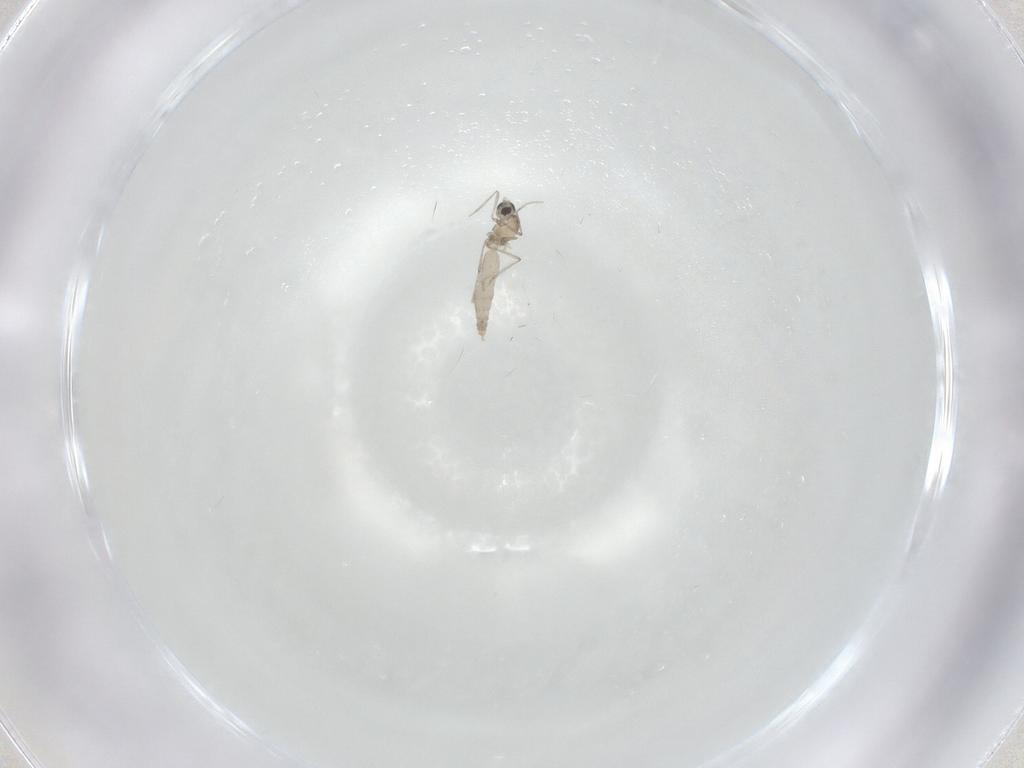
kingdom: Animalia
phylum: Arthropoda
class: Insecta
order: Diptera
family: Cecidomyiidae
